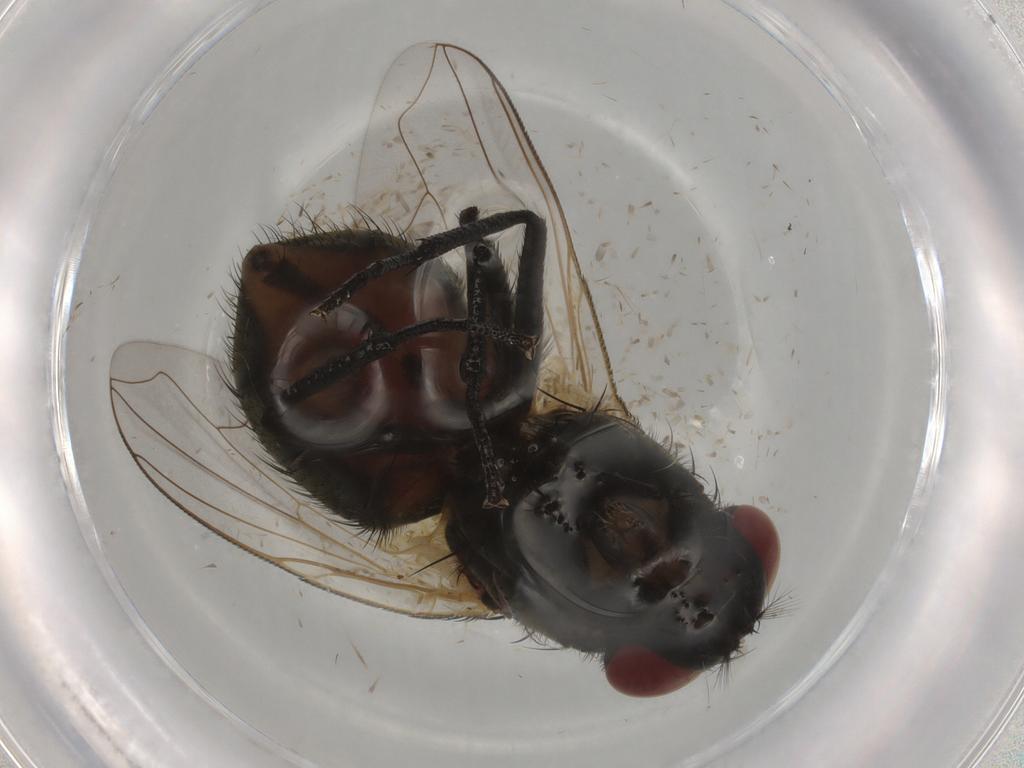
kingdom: Animalia
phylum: Arthropoda
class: Insecta
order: Diptera
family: Muscidae
